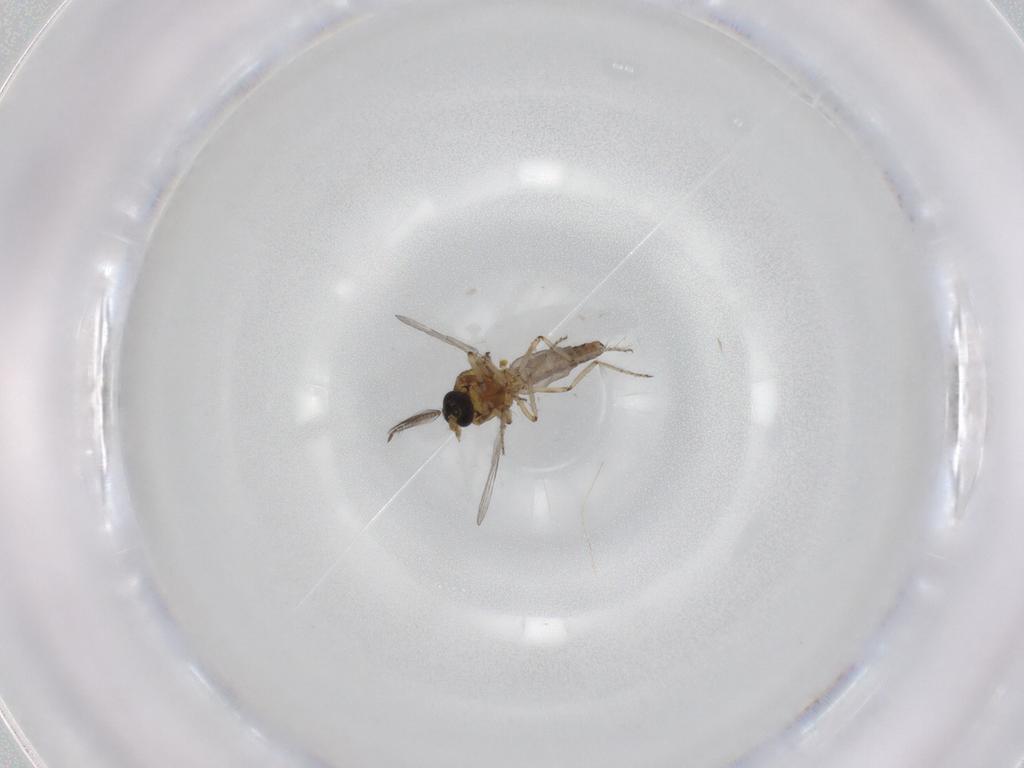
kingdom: Animalia
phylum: Arthropoda
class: Insecta
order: Diptera
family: Ceratopogonidae
